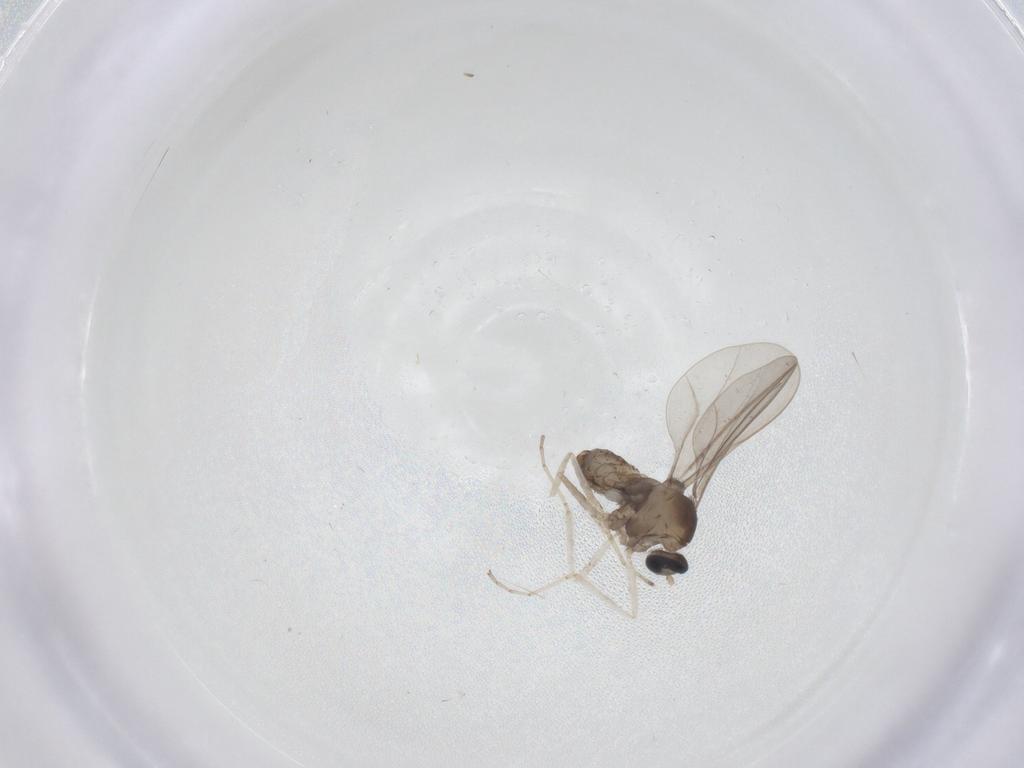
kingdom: Animalia
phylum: Arthropoda
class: Insecta
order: Diptera
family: Cecidomyiidae
